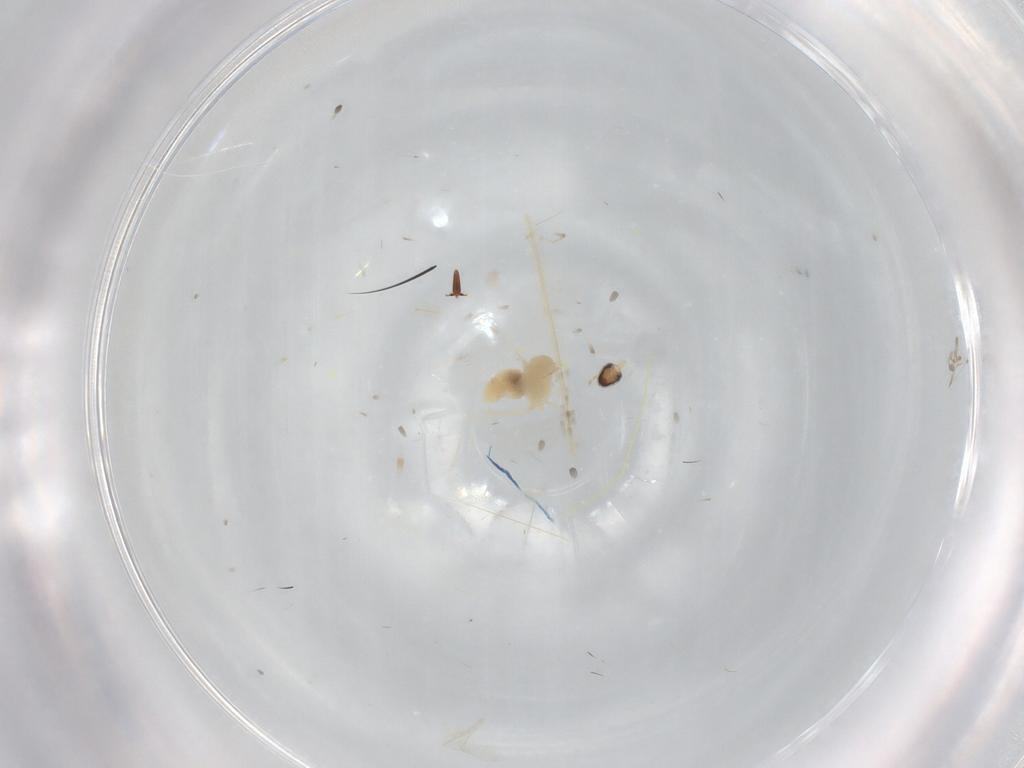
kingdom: Animalia
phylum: Arthropoda
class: Insecta
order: Diptera
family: Cecidomyiidae
